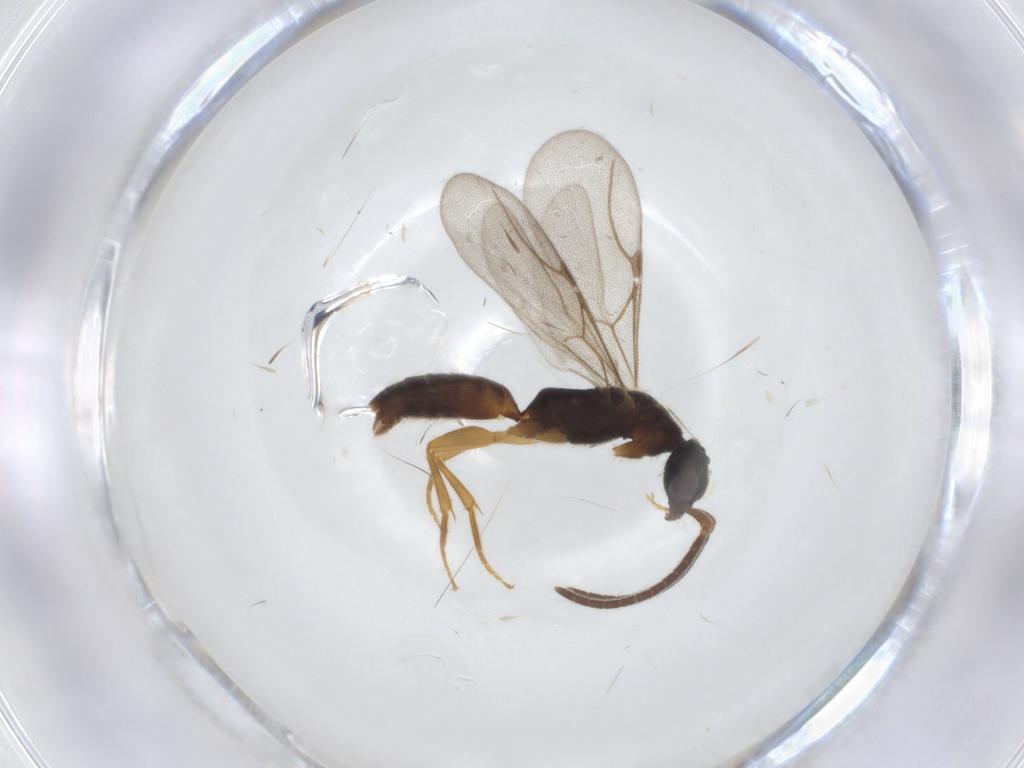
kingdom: Animalia
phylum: Arthropoda
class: Insecta
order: Hymenoptera
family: Bethylidae
